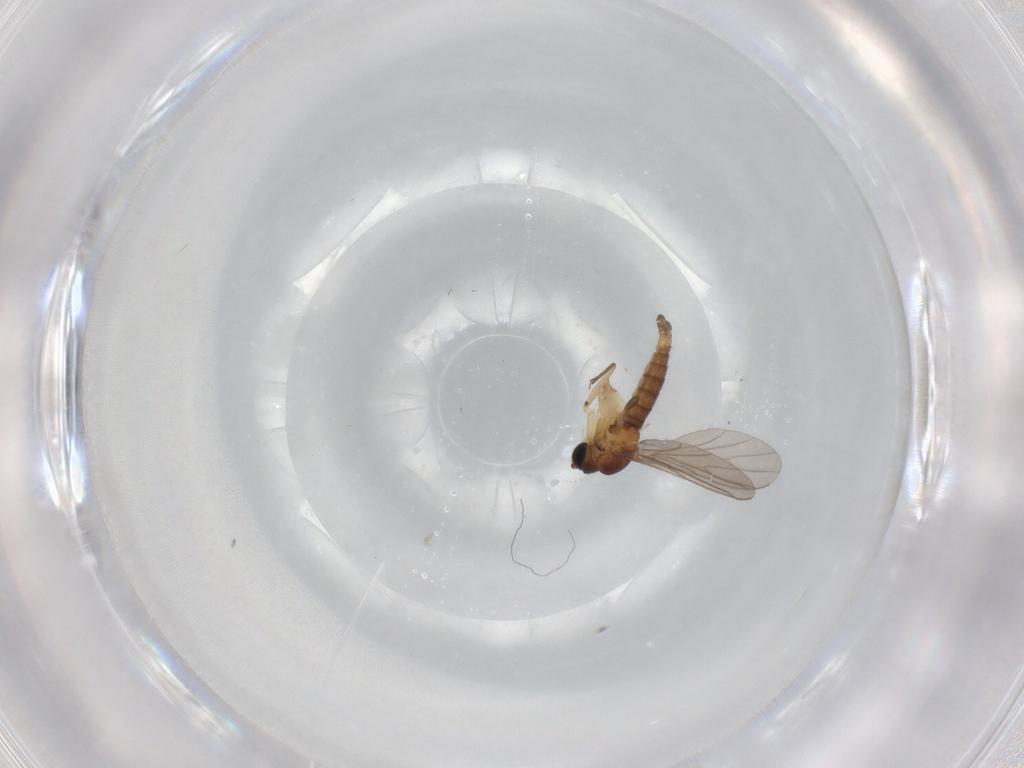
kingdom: Animalia
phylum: Arthropoda
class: Insecta
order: Diptera
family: Sciaridae
